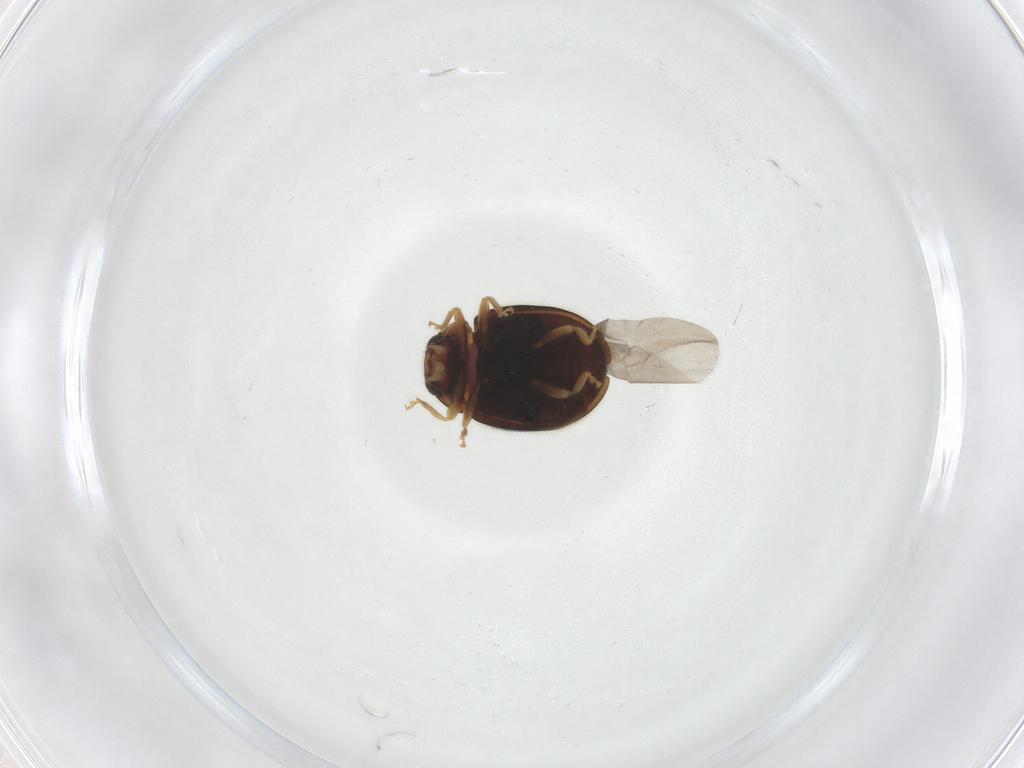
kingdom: Animalia
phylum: Arthropoda
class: Insecta
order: Coleoptera
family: Coccinellidae
